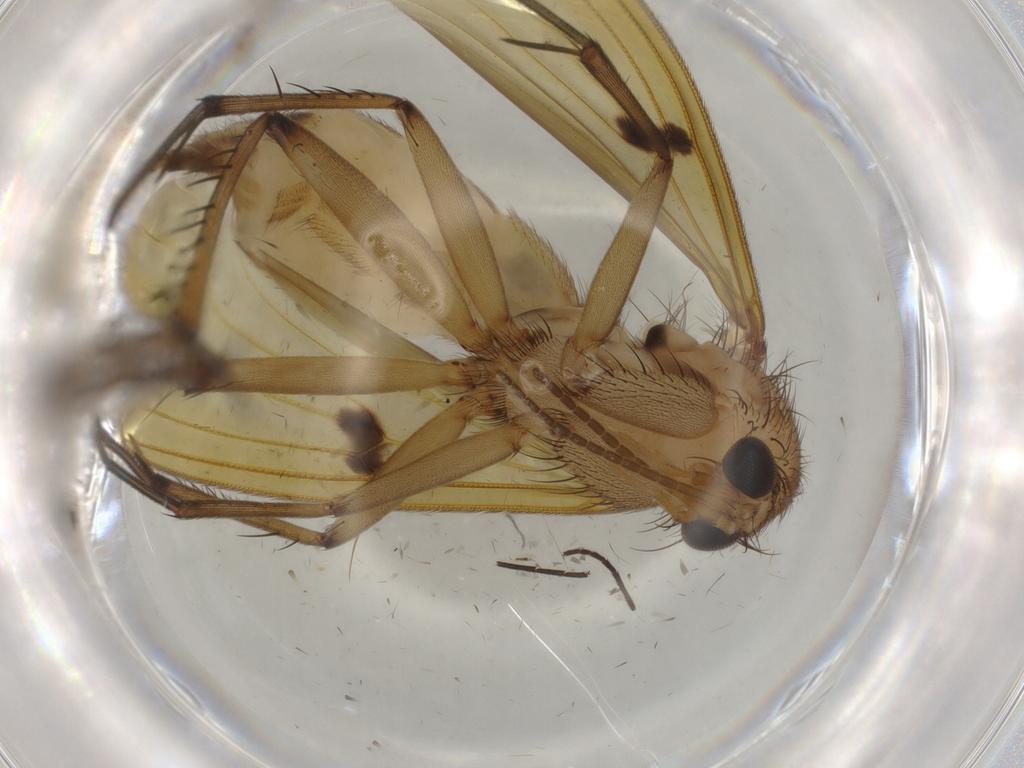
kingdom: Animalia
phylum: Arthropoda
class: Insecta
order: Diptera
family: Mycetophilidae
